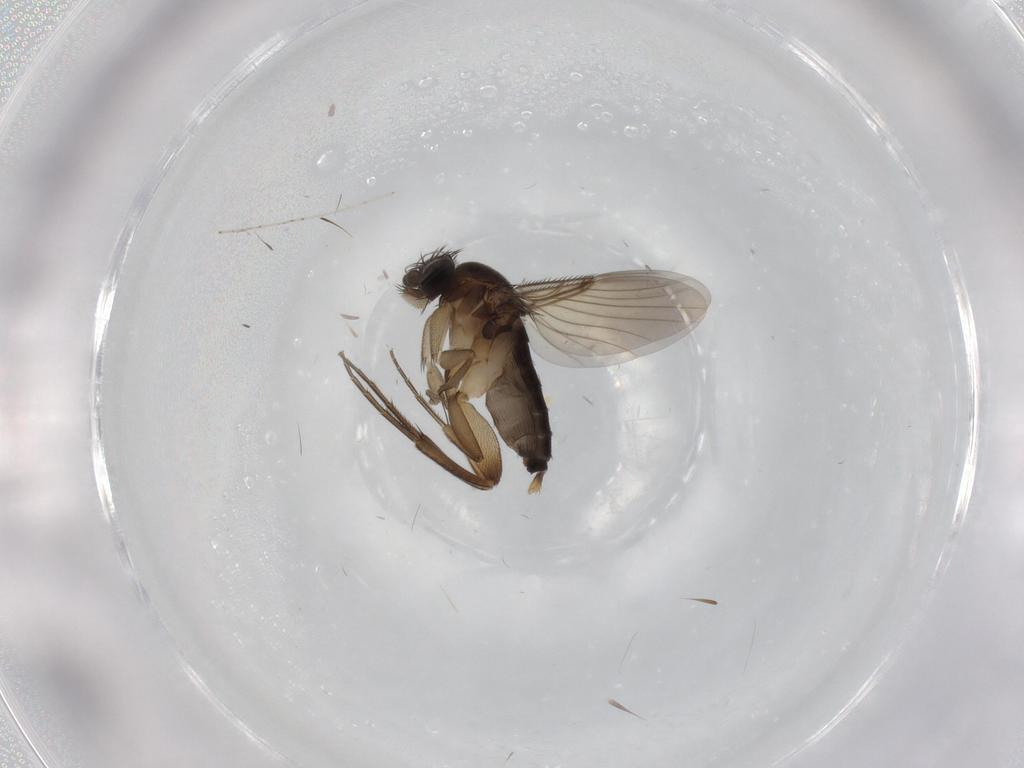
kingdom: Animalia
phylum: Arthropoda
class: Insecta
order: Diptera
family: Phoridae
